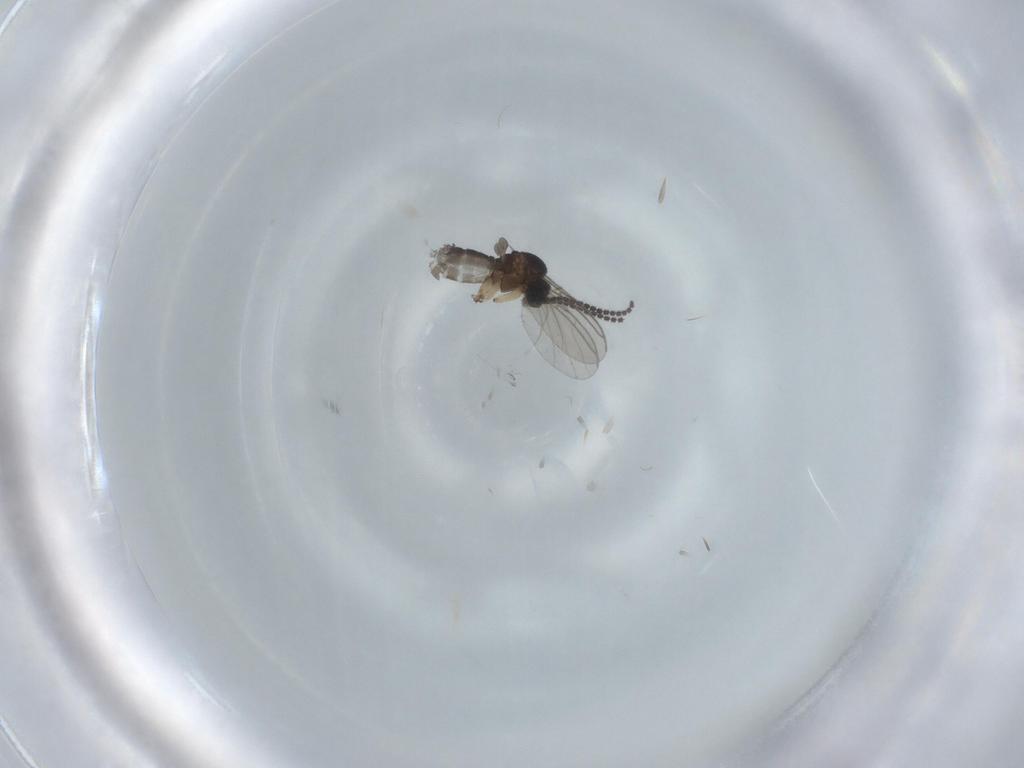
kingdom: Animalia
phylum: Arthropoda
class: Insecta
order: Diptera
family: Sciaridae
